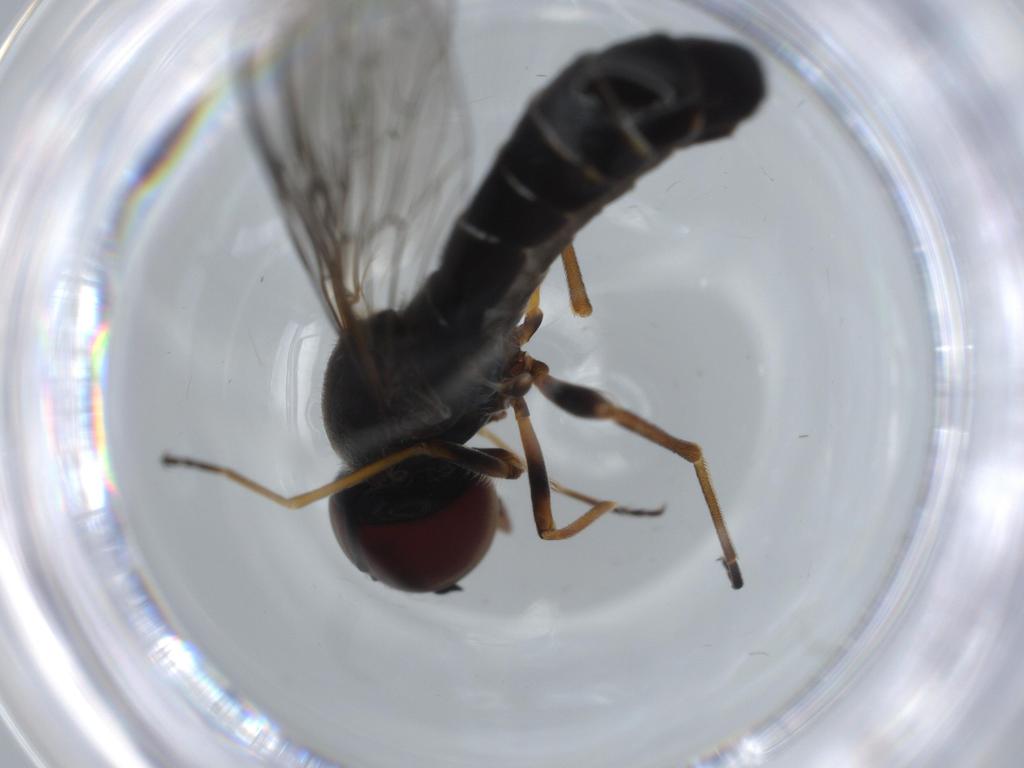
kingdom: Animalia
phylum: Arthropoda
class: Insecta
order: Diptera
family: Bombyliidae
